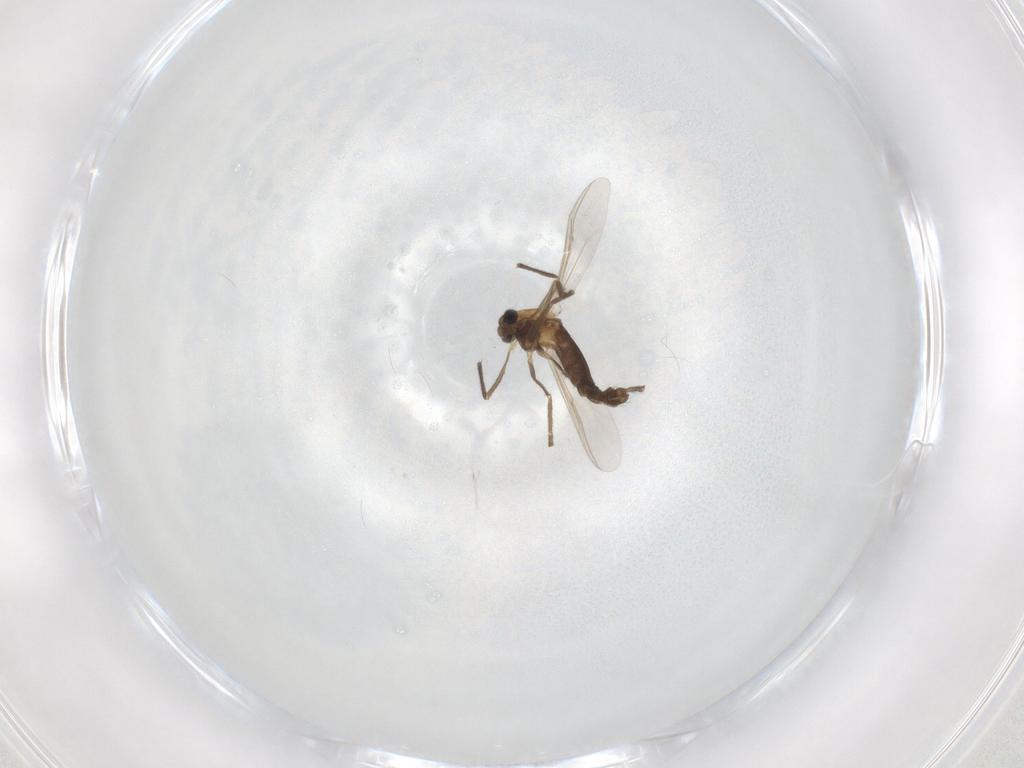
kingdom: Animalia
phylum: Arthropoda
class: Insecta
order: Diptera
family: Chironomidae
